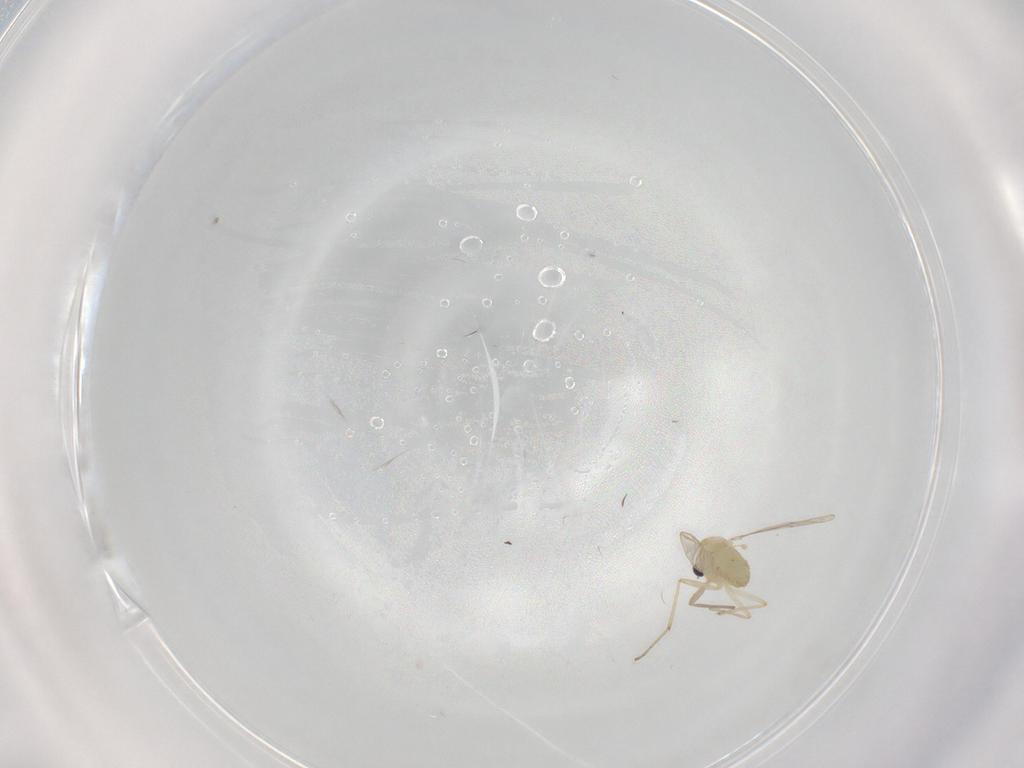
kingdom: Animalia
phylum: Arthropoda
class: Insecta
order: Diptera
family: Chironomidae
